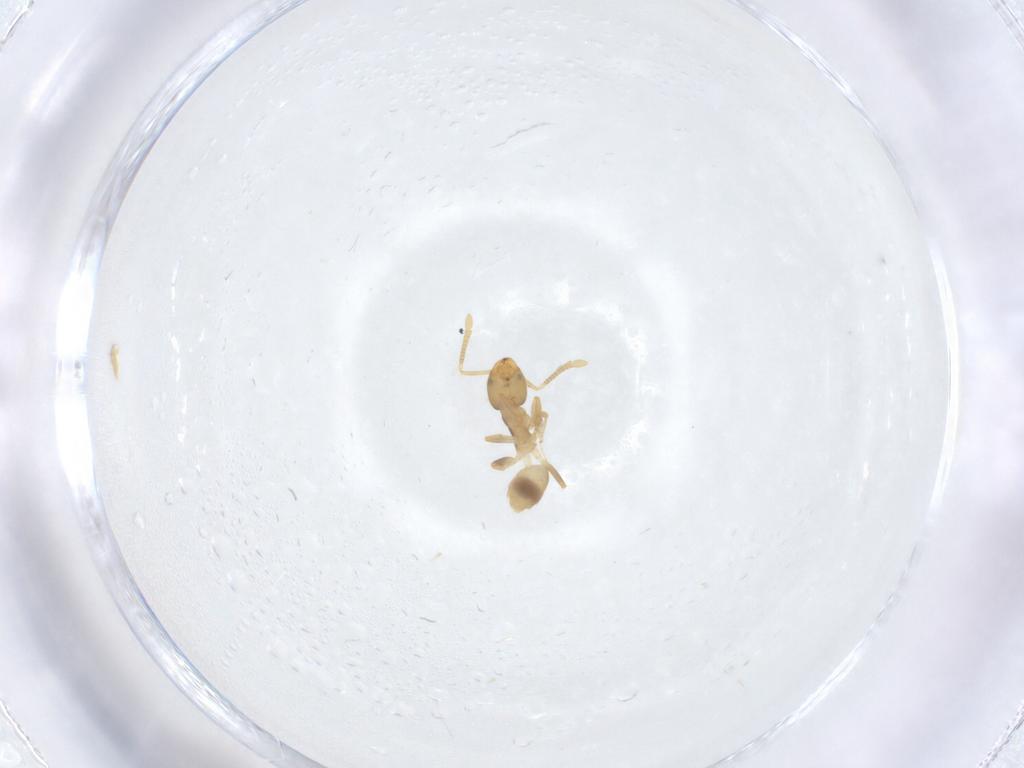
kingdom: Animalia
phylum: Arthropoda
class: Insecta
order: Hymenoptera
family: Formicidae
